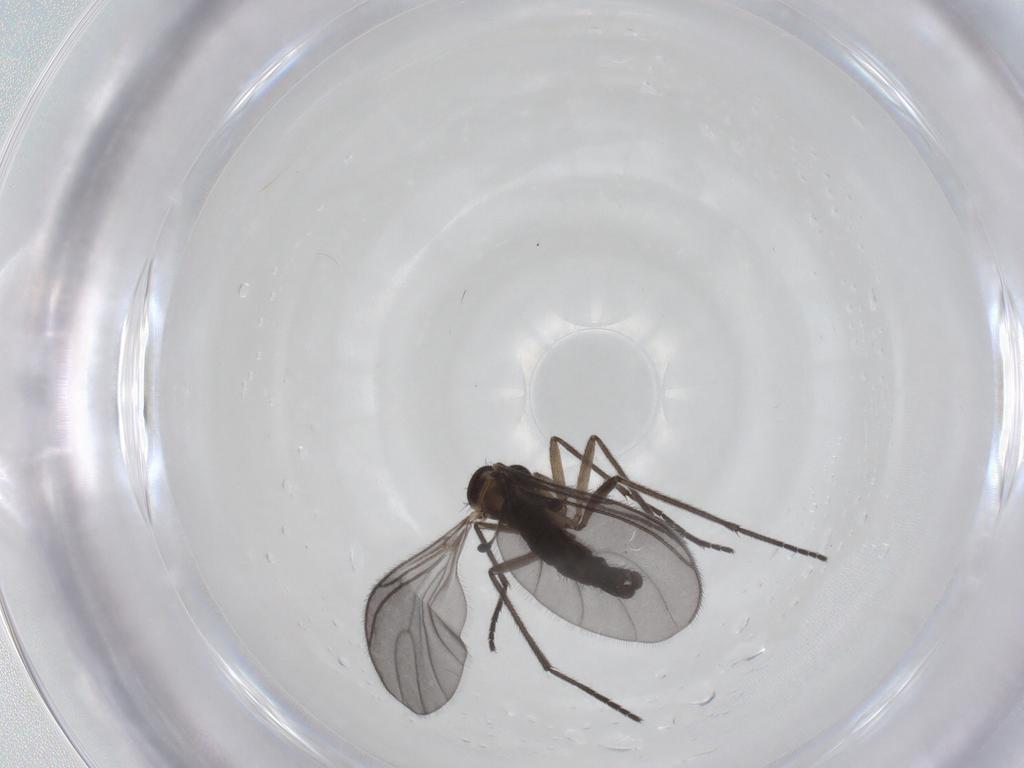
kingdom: Animalia
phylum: Arthropoda
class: Insecta
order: Diptera
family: Sciaridae
